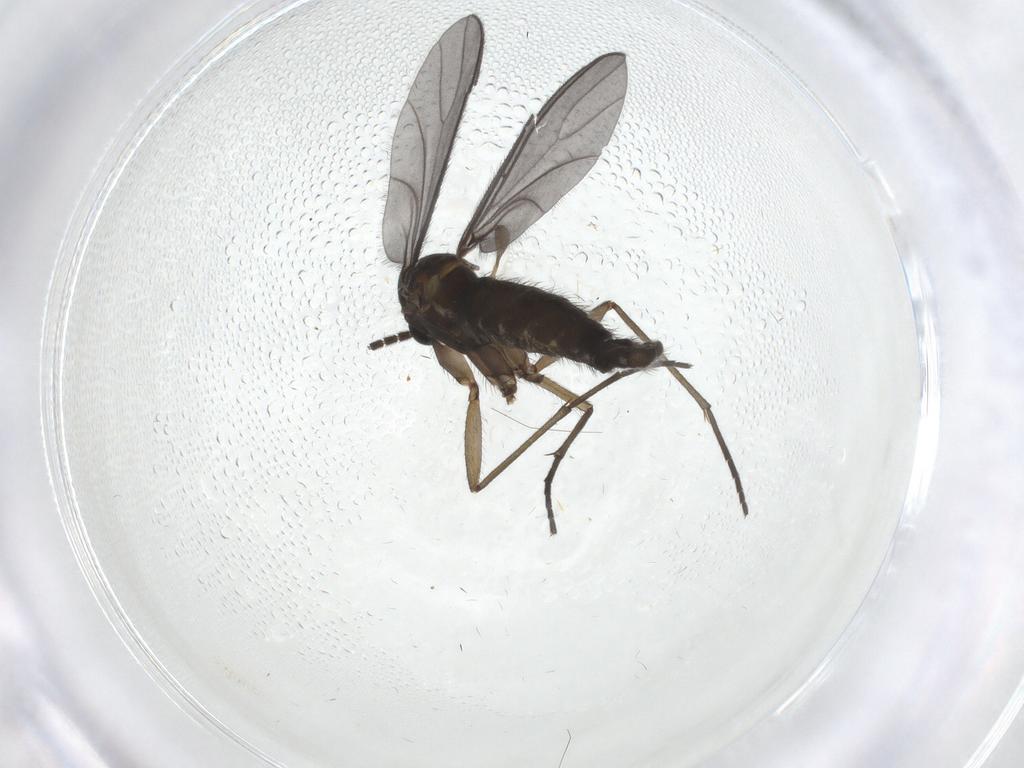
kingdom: Animalia
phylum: Arthropoda
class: Insecta
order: Diptera
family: Sciaridae
